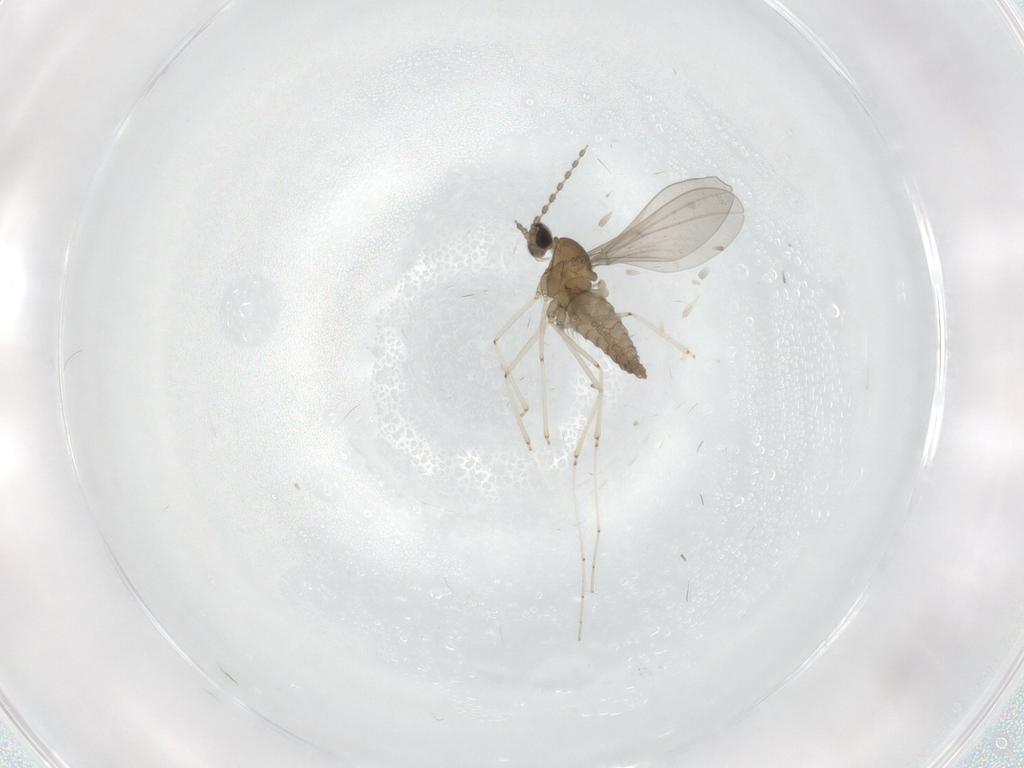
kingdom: Animalia
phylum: Arthropoda
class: Insecta
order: Diptera
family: Cecidomyiidae
